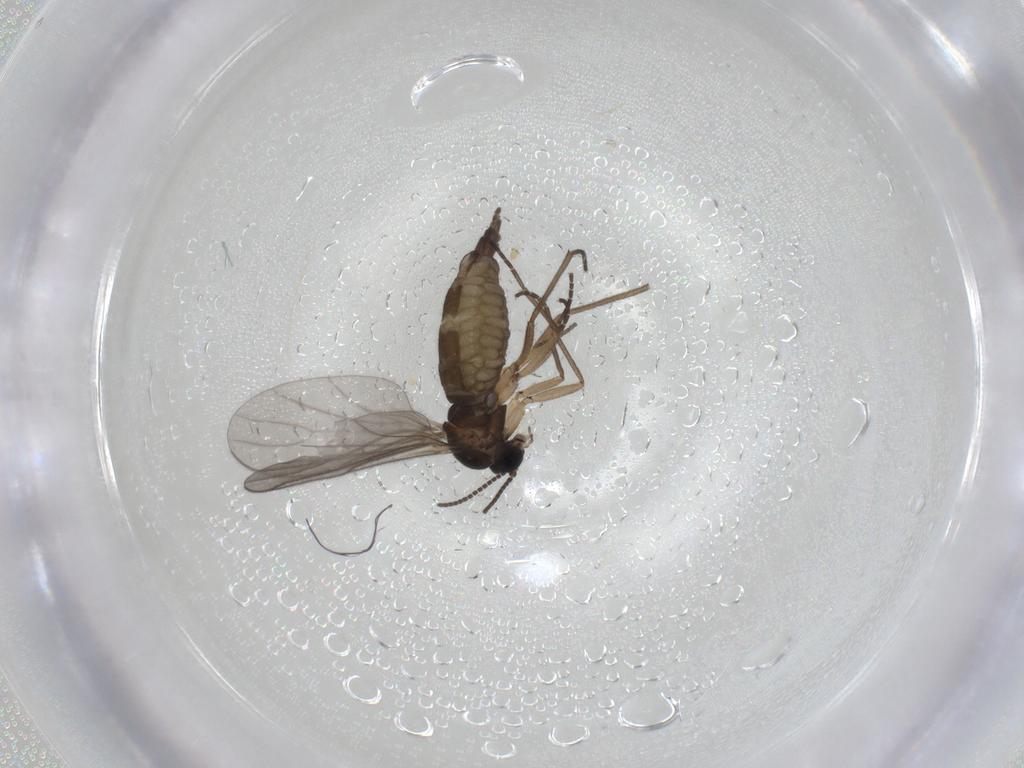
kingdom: Animalia
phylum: Arthropoda
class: Insecta
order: Diptera
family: Sciaridae
